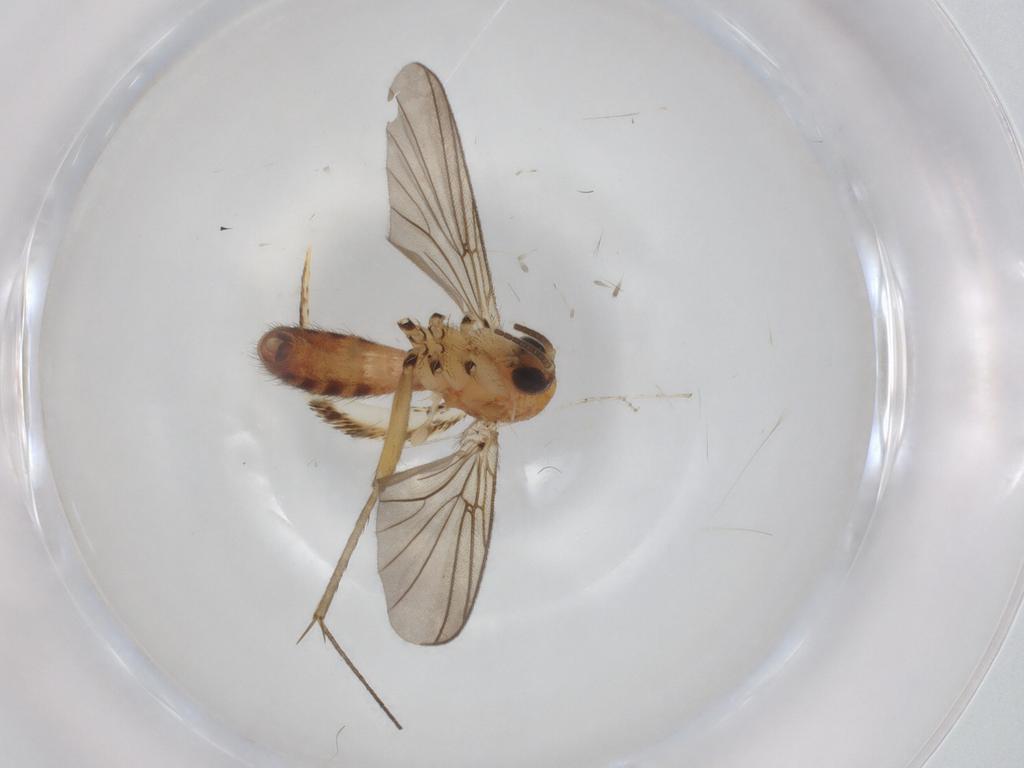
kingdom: Animalia
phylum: Arthropoda
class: Insecta
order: Diptera
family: Chironomidae
